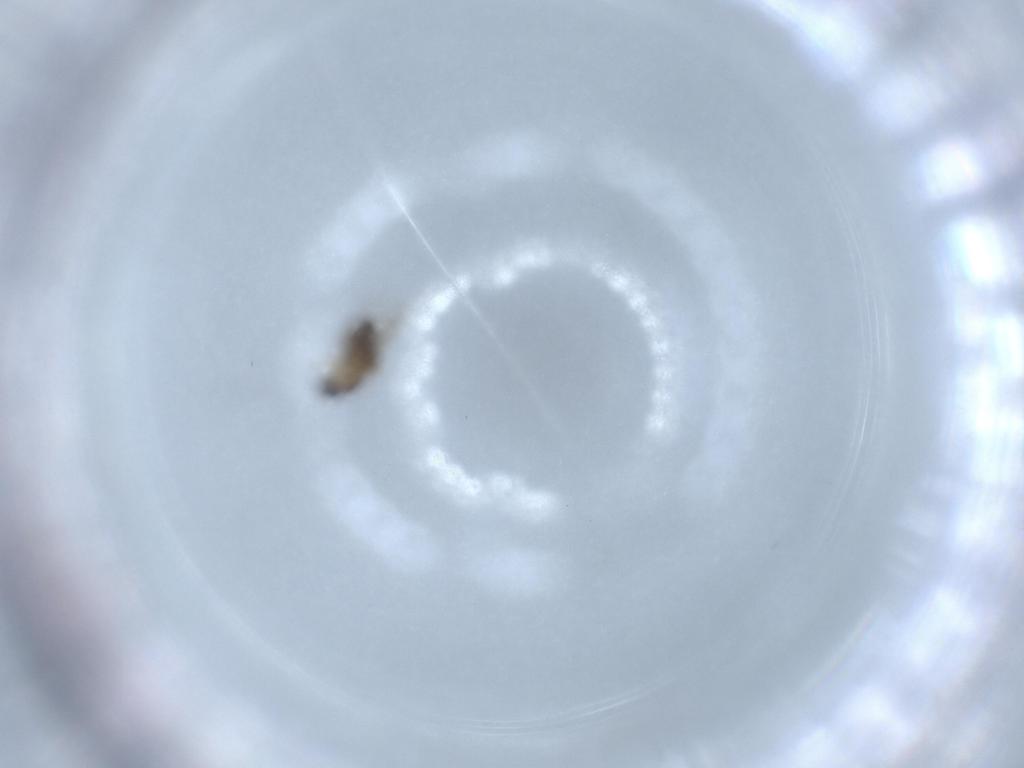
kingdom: Animalia
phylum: Arthropoda
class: Insecta
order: Diptera
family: Phoridae
